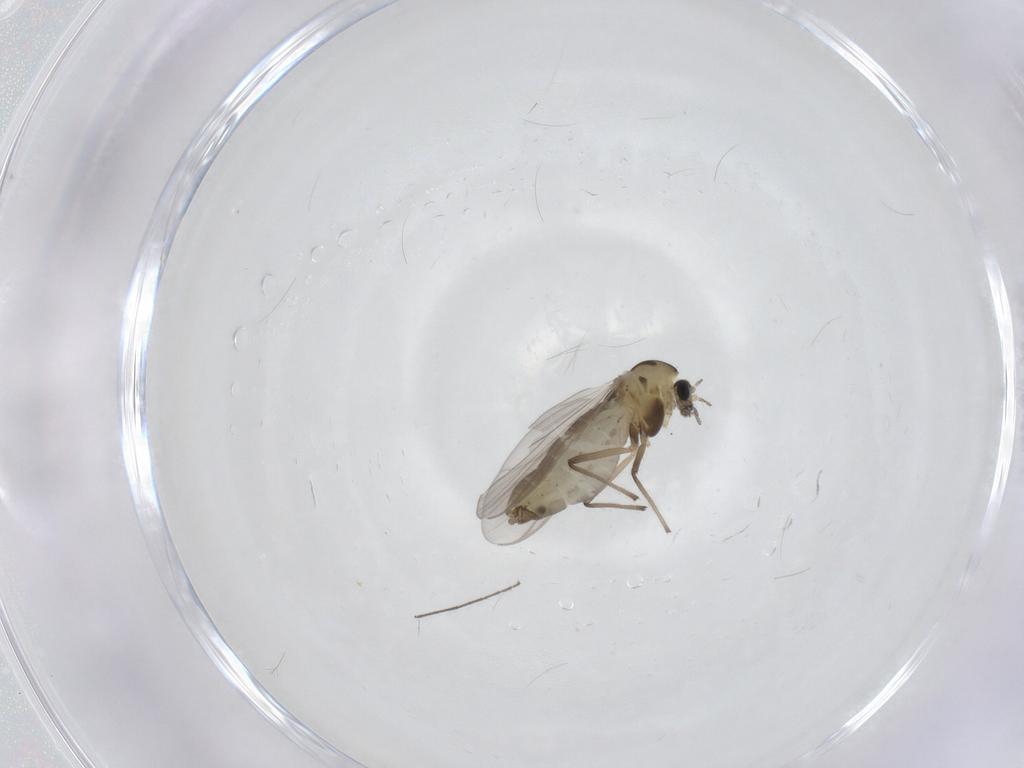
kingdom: Animalia
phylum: Arthropoda
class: Insecta
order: Diptera
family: Chironomidae
